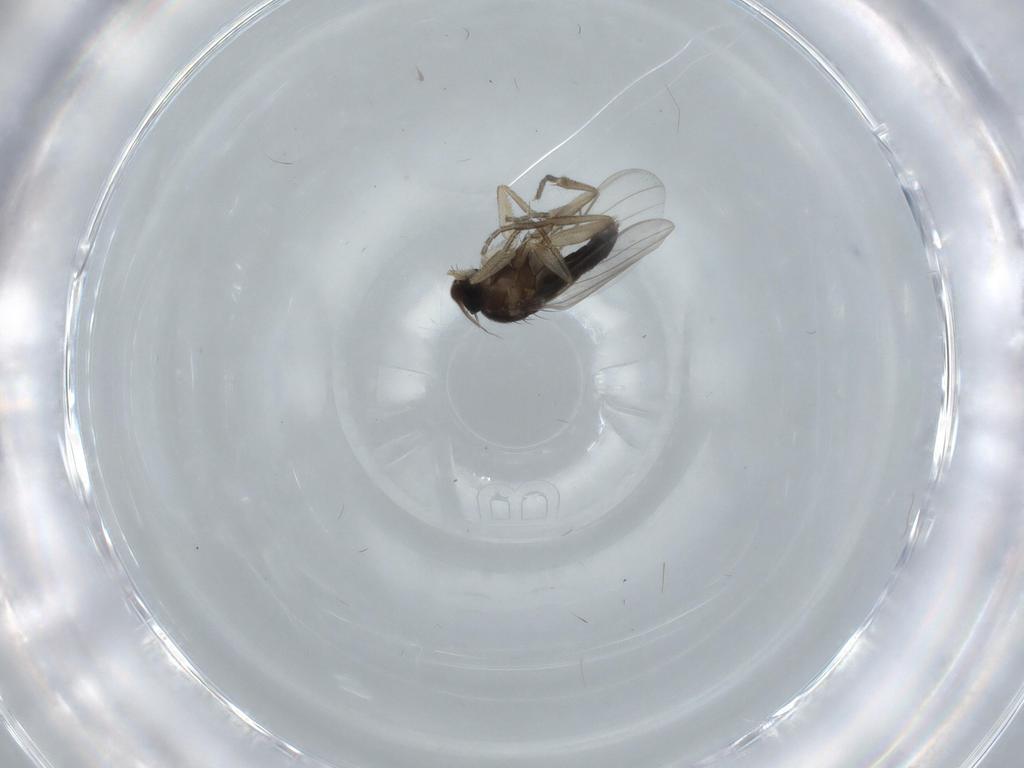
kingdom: Animalia
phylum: Arthropoda
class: Insecta
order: Diptera
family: Phoridae
